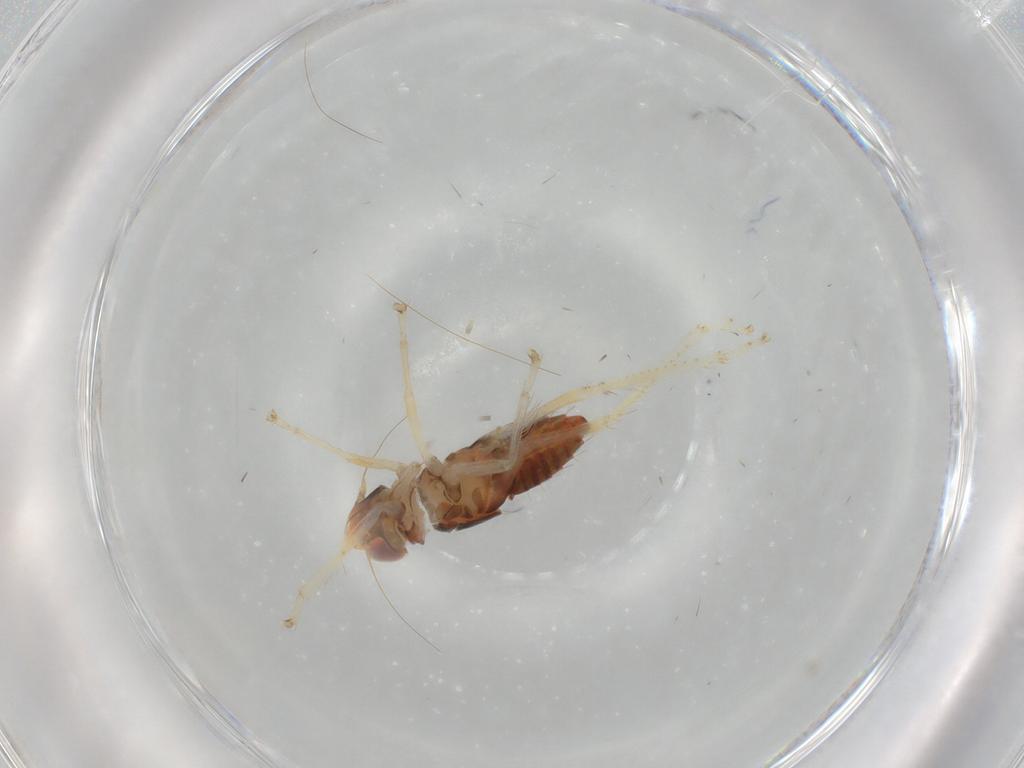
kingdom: Animalia
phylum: Arthropoda
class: Insecta
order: Hemiptera
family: Cicadellidae
